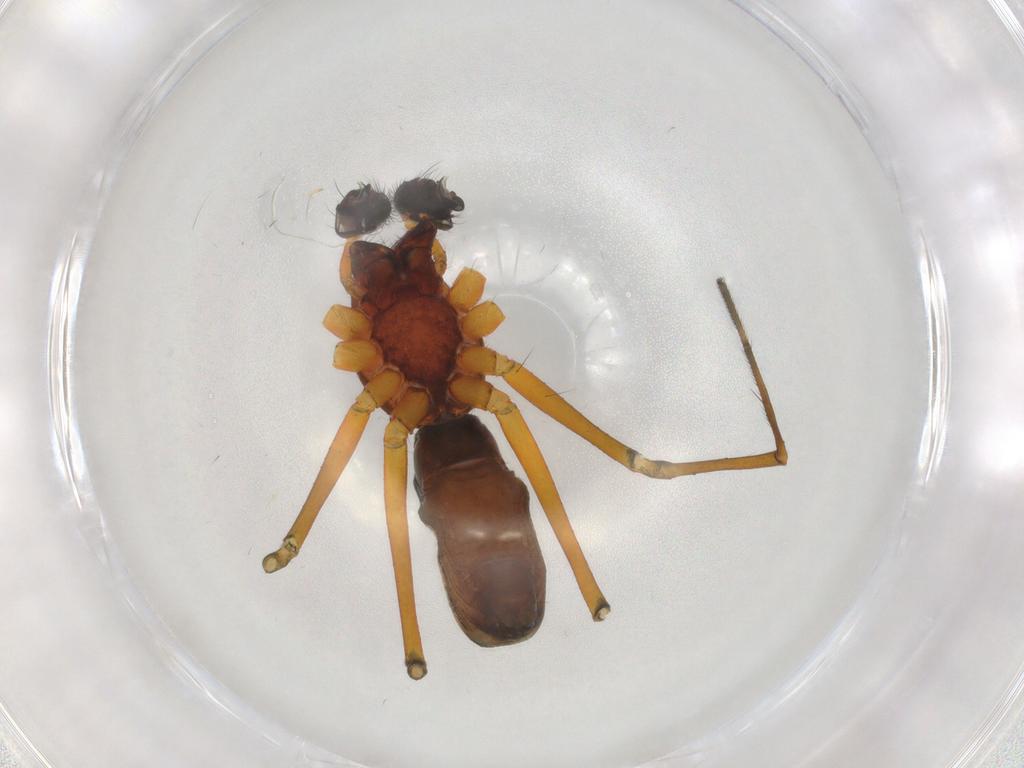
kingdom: Animalia
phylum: Arthropoda
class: Arachnida
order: Araneae
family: Linyphiidae
